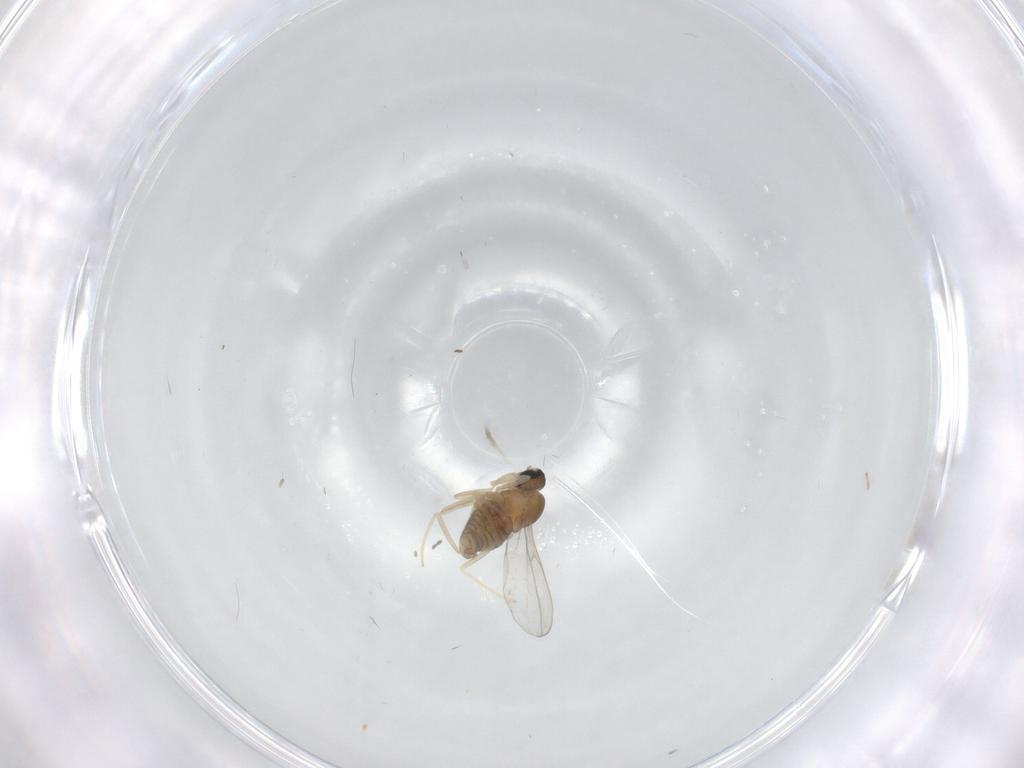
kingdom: Animalia
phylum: Arthropoda
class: Insecta
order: Diptera
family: Cecidomyiidae
